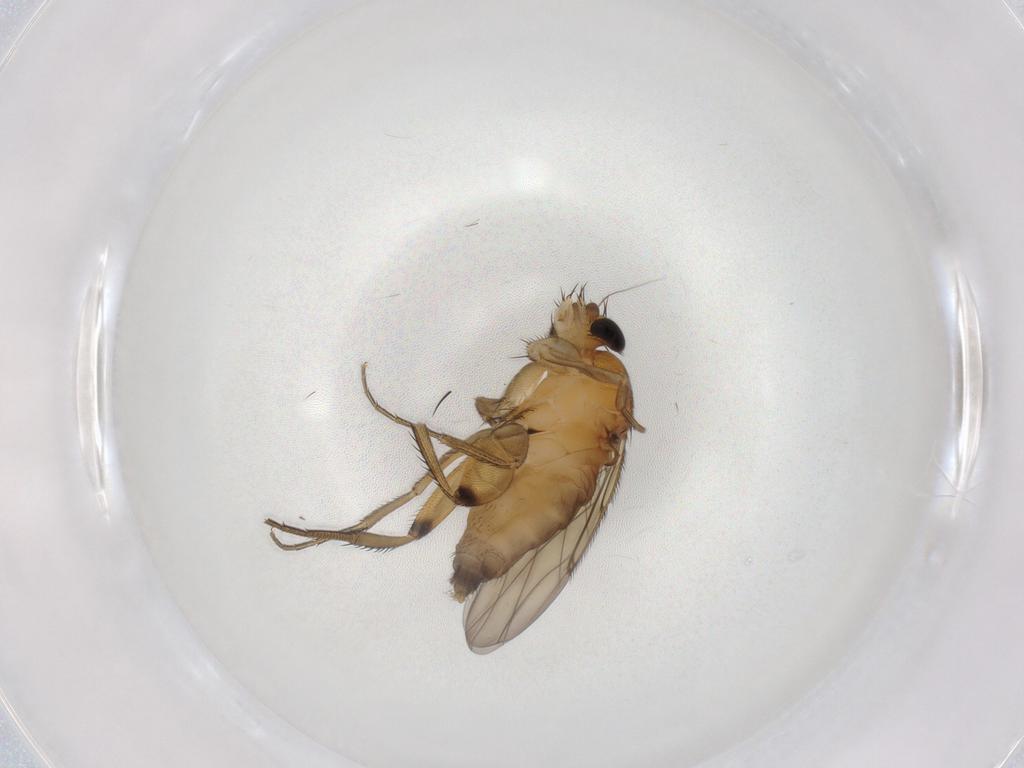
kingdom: Animalia
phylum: Arthropoda
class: Insecta
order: Diptera
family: Phoridae
